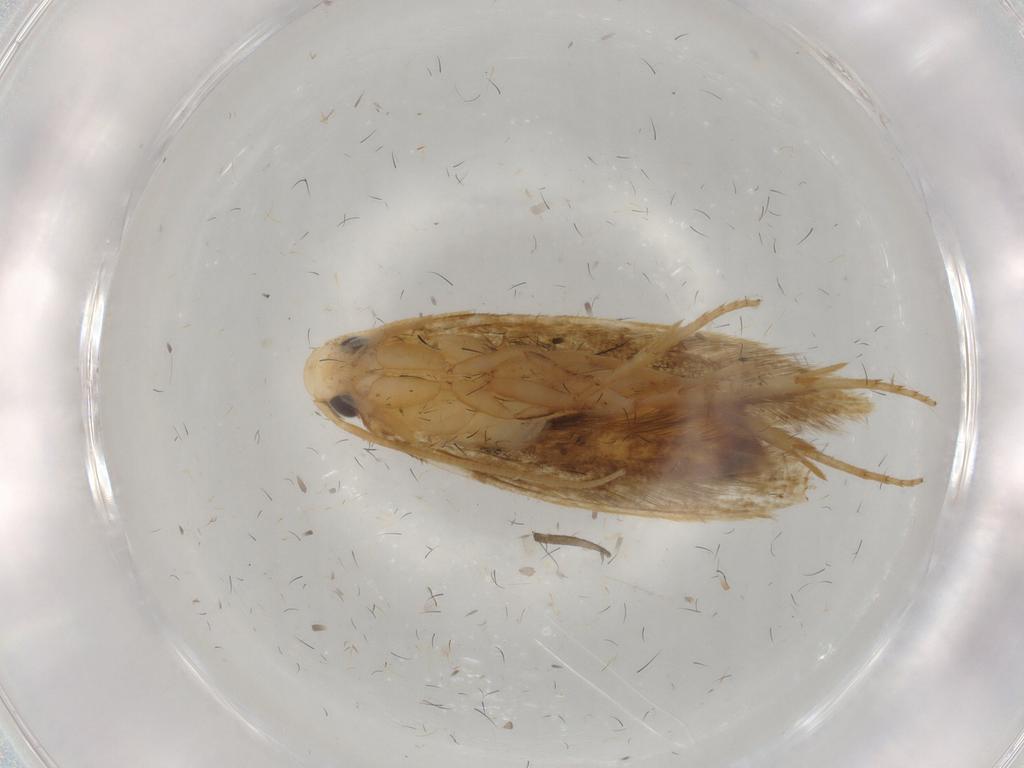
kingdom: Animalia
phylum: Arthropoda
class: Insecta
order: Lepidoptera
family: Tineidae
